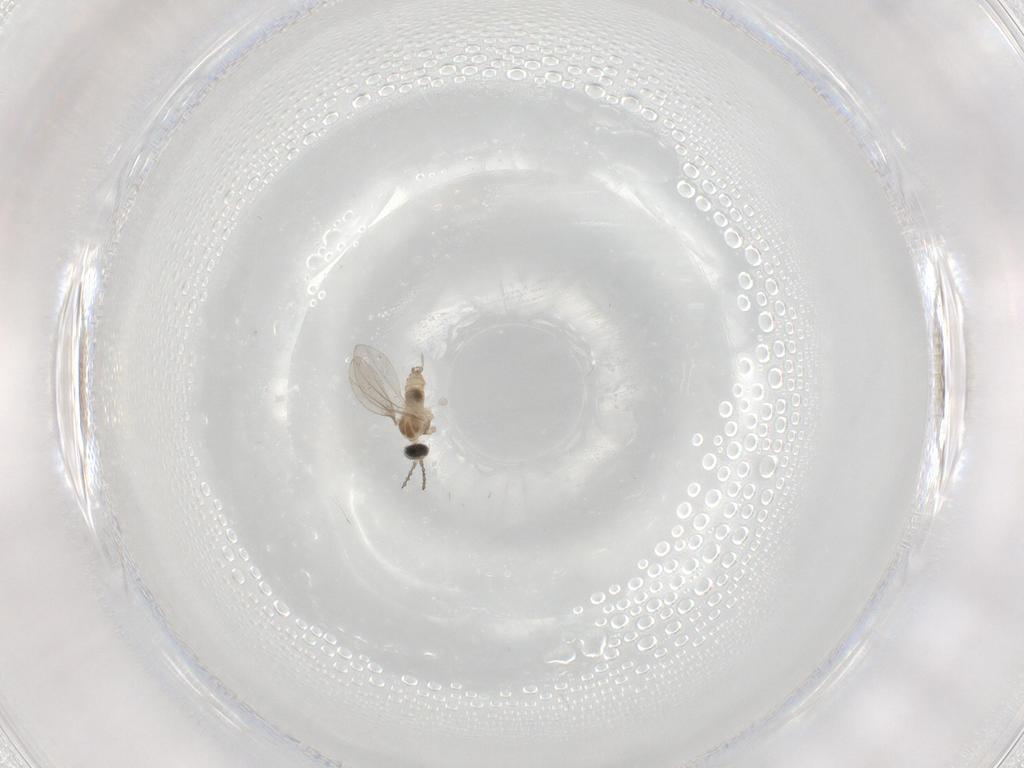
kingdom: Animalia
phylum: Arthropoda
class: Insecta
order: Diptera
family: Cecidomyiidae
